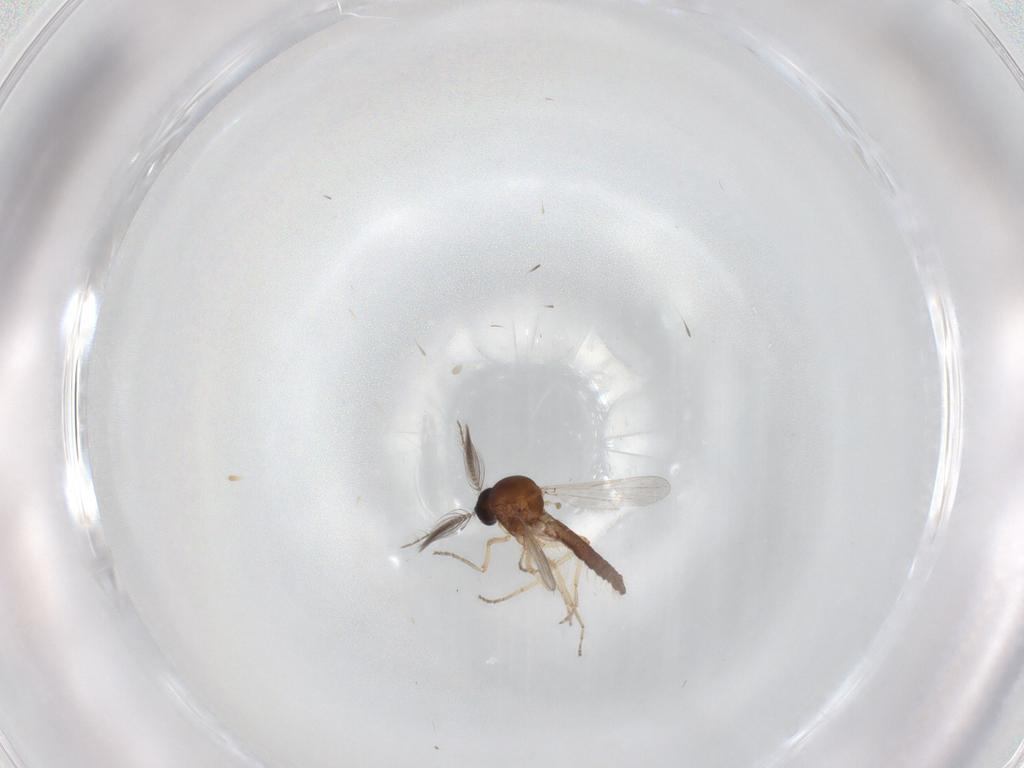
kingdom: Animalia
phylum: Arthropoda
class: Insecta
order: Diptera
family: Ceratopogonidae
